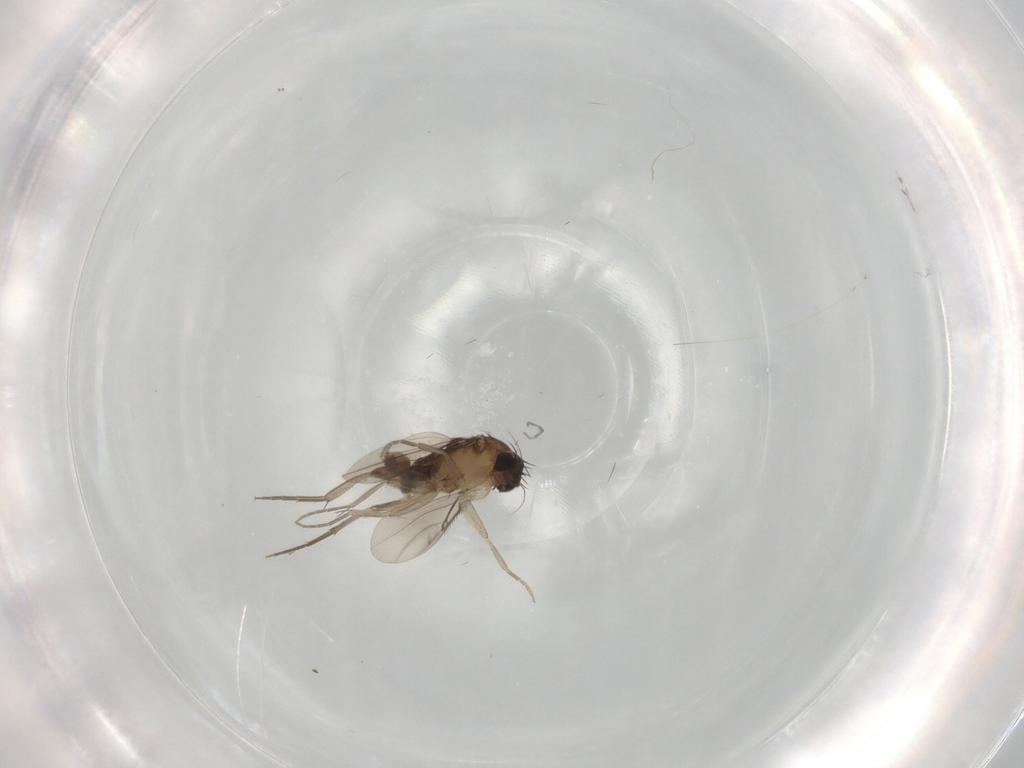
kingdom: Animalia
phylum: Arthropoda
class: Insecta
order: Diptera
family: Phoridae
